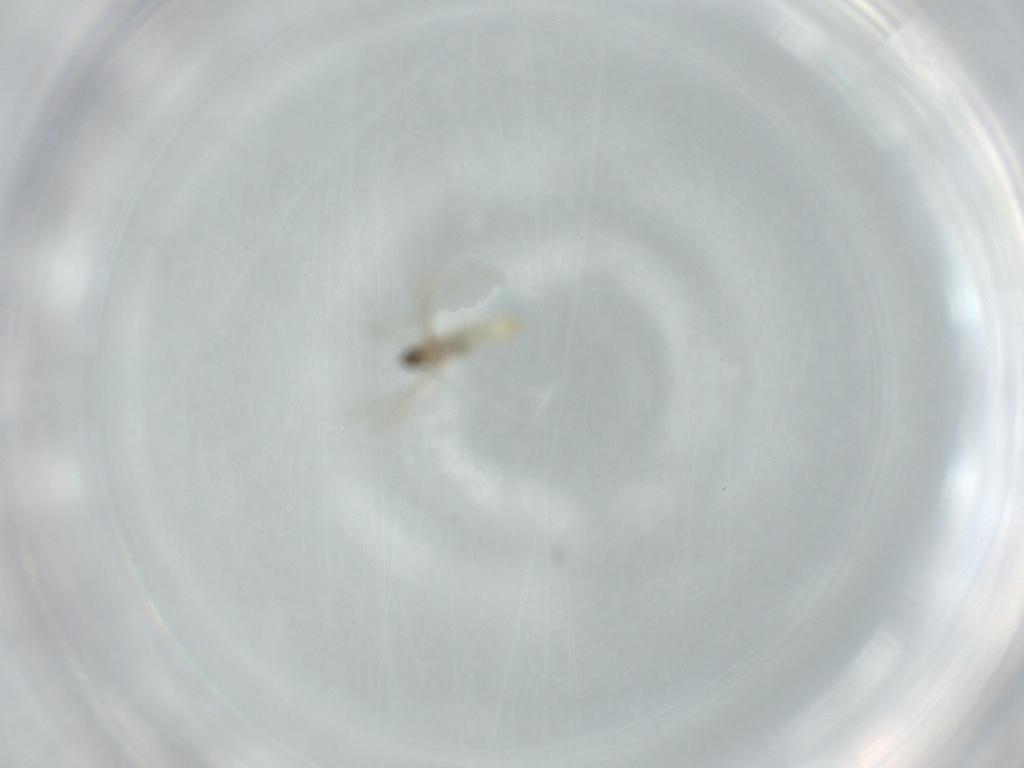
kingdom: Animalia
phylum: Arthropoda
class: Insecta
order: Diptera
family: Cecidomyiidae
